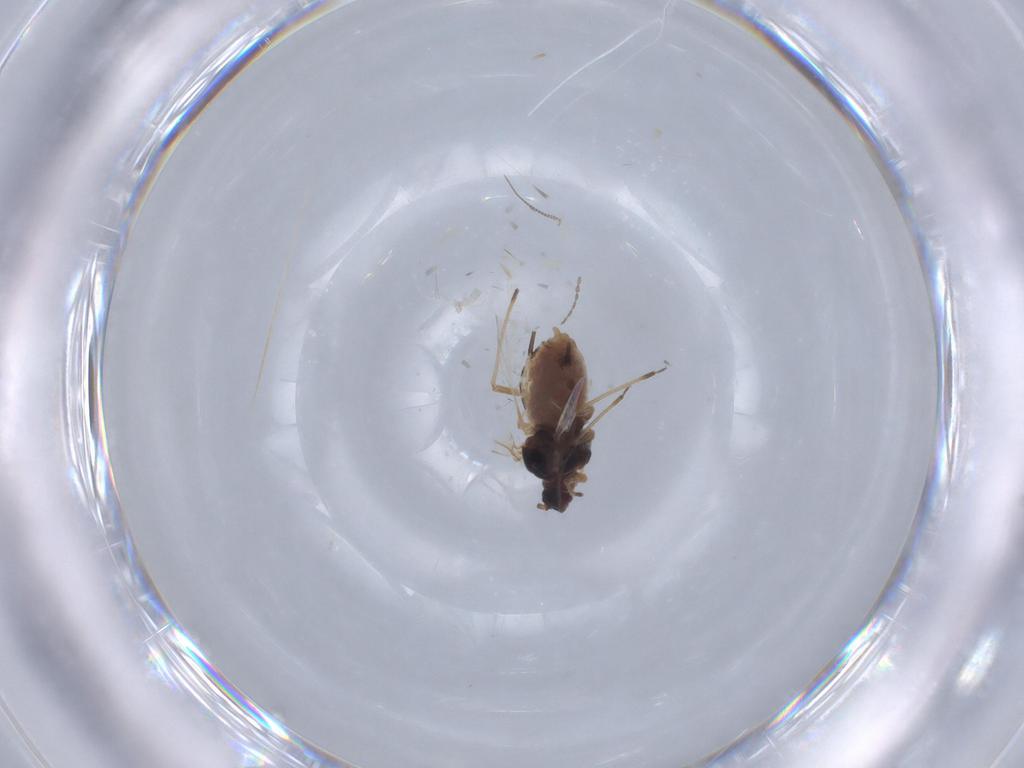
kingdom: Animalia
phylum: Arthropoda
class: Insecta
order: Hemiptera
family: Aphididae
